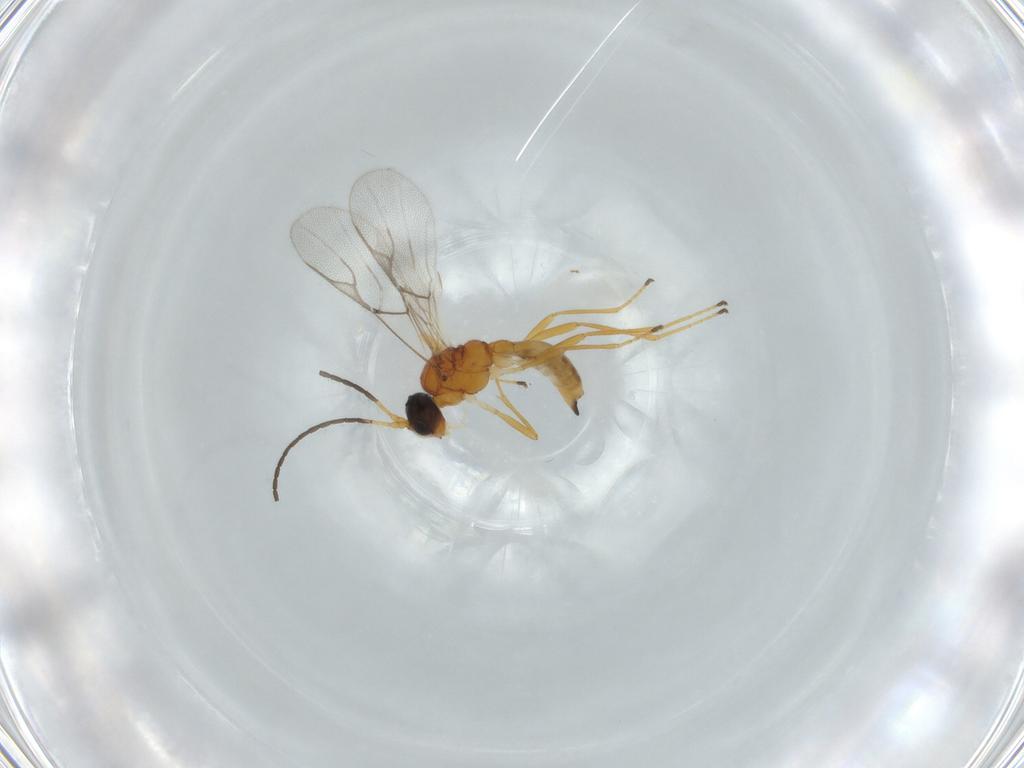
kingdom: Animalia
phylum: Arthropoda
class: Insecta
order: Hymenoptera
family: Braconidae
